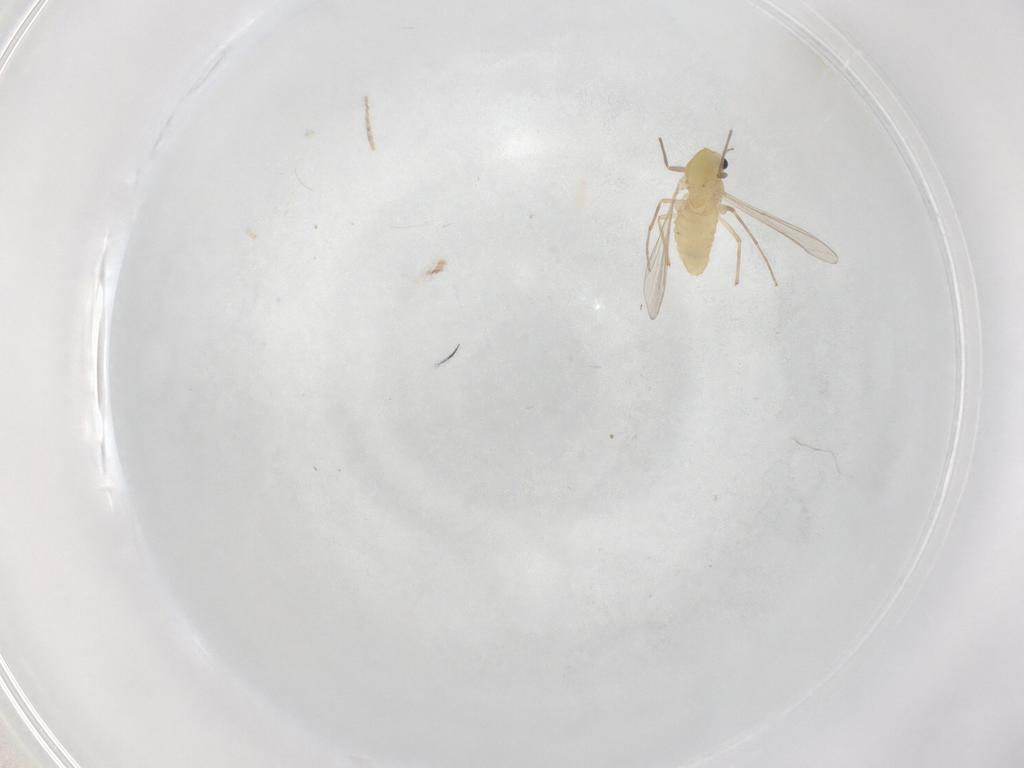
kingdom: Animalia
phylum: Arthropoda
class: Insecta
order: Diptera
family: Chironomidae
